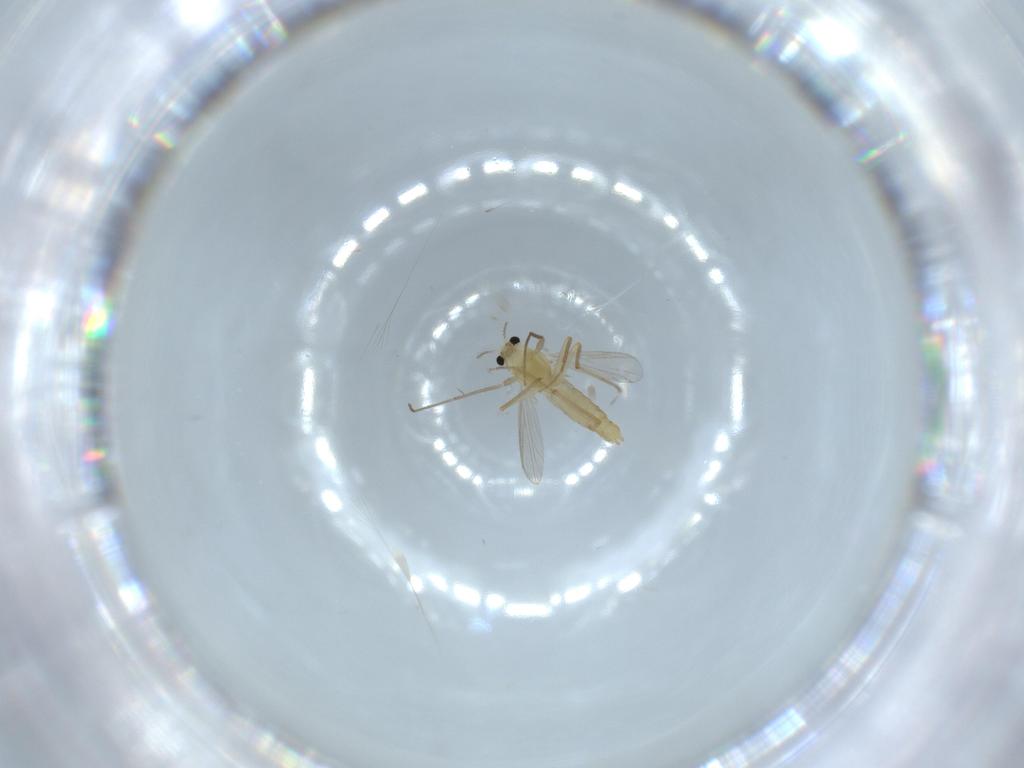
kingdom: Animalia
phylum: Arthropoda
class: Insecta
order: Diptera
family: Chironomidae
